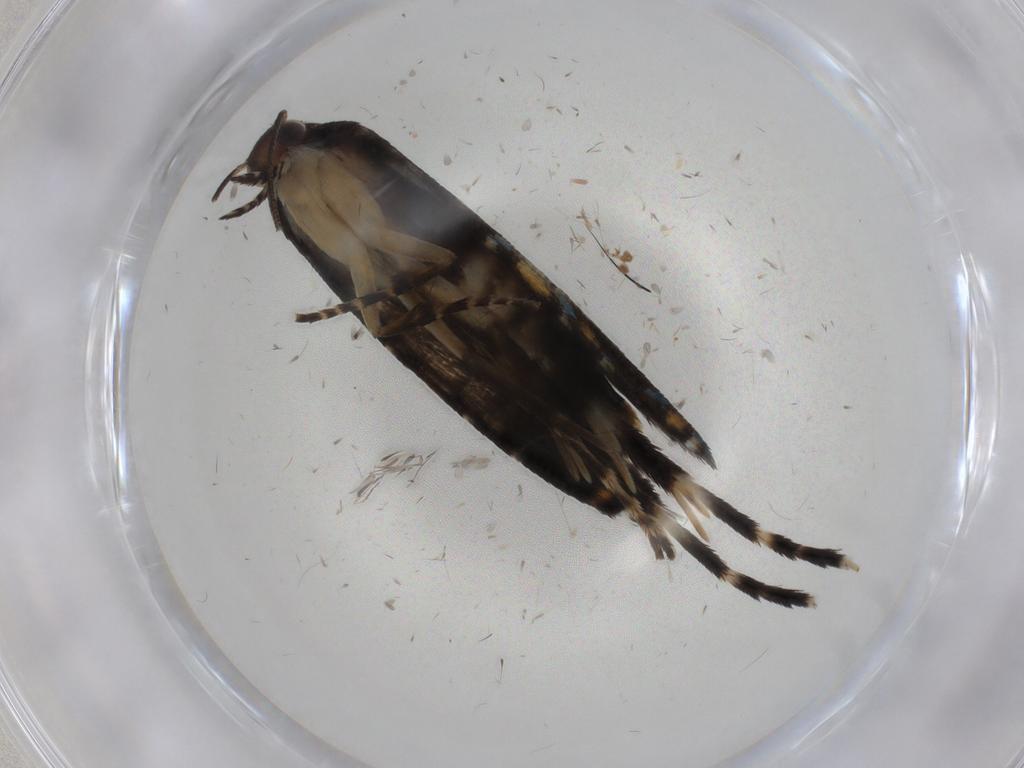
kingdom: Animalia
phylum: Arthropoda
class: Insecta
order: Lepidoptera
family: Glyphipterigidae
